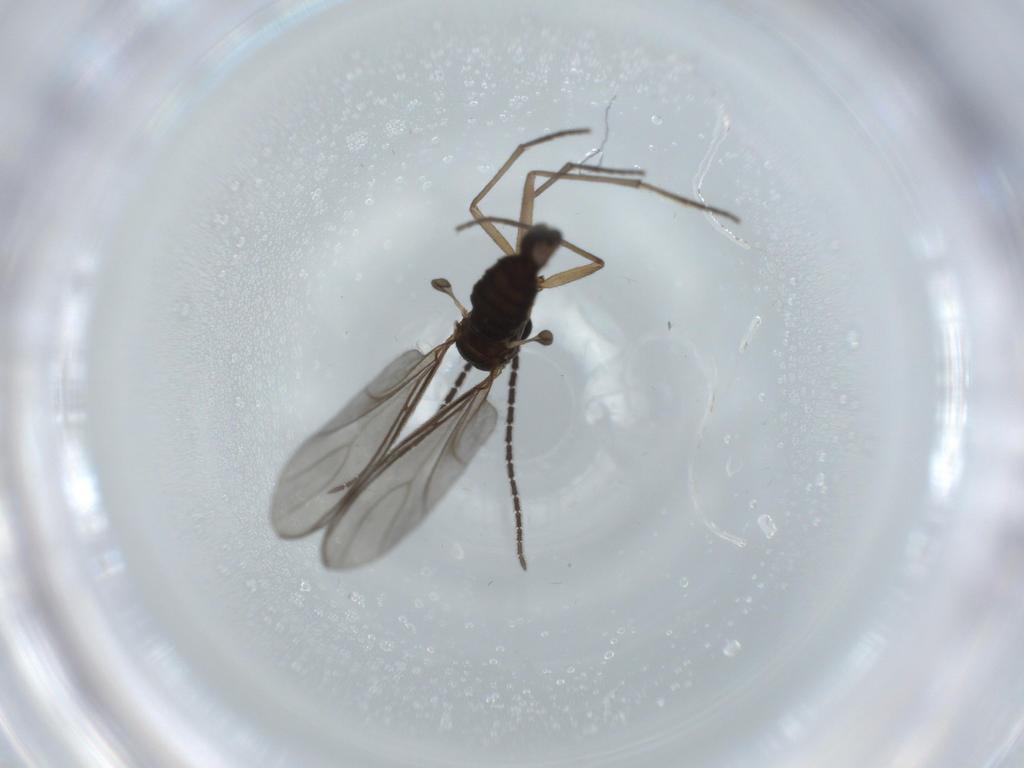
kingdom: Animalia
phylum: Arthropoda
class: Insecta
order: Diptera
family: Sciaridae
